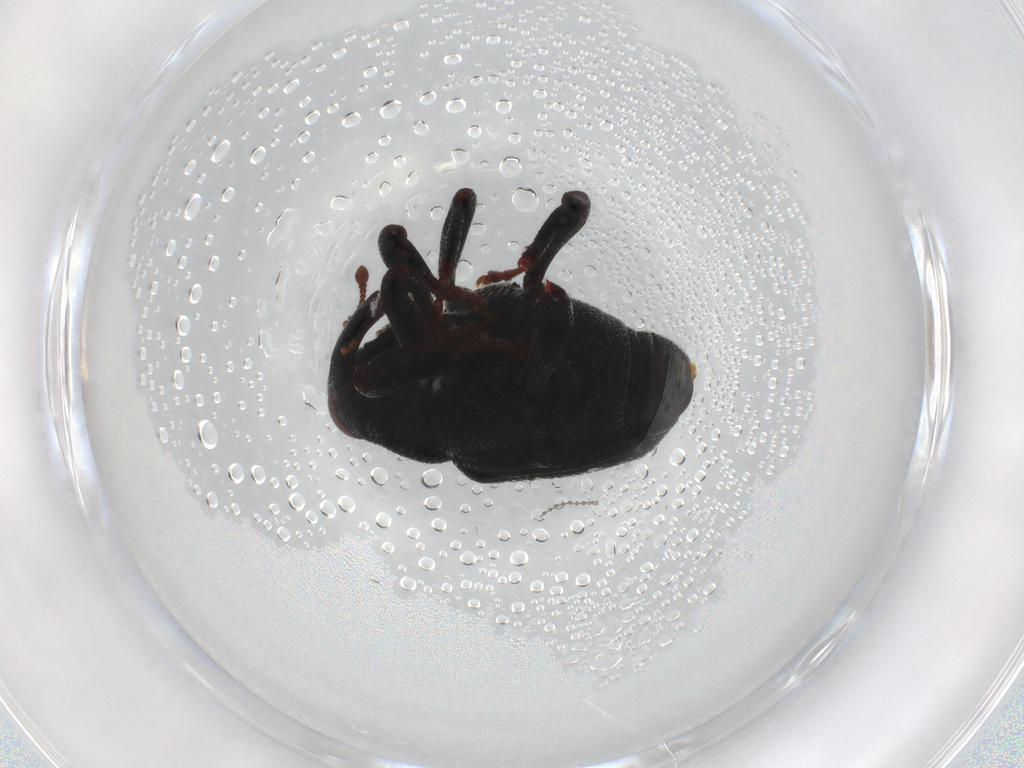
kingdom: Animalia
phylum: Arthropoda
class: Insecta
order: Coleoptera
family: Curculionidae
